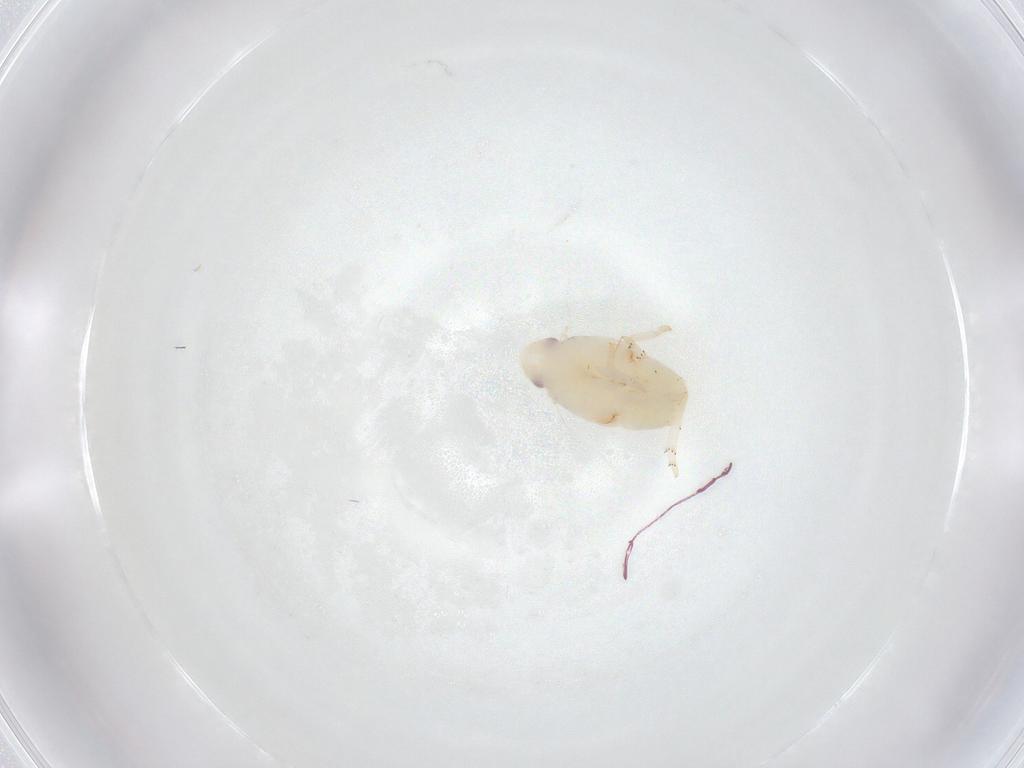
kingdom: Animalia
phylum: Arthropoda
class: Insecta
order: Hemiptera
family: Flatidae
